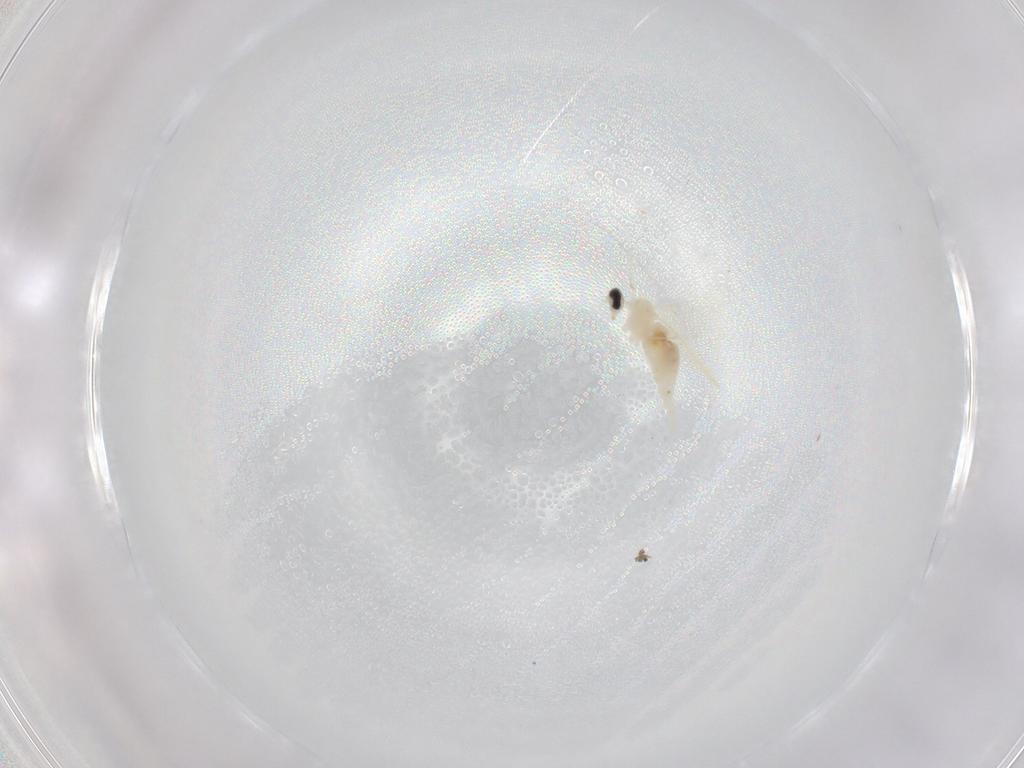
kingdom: Animalia
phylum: Arthropoda
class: Insecta
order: Diptera
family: Cecidomyiidae
